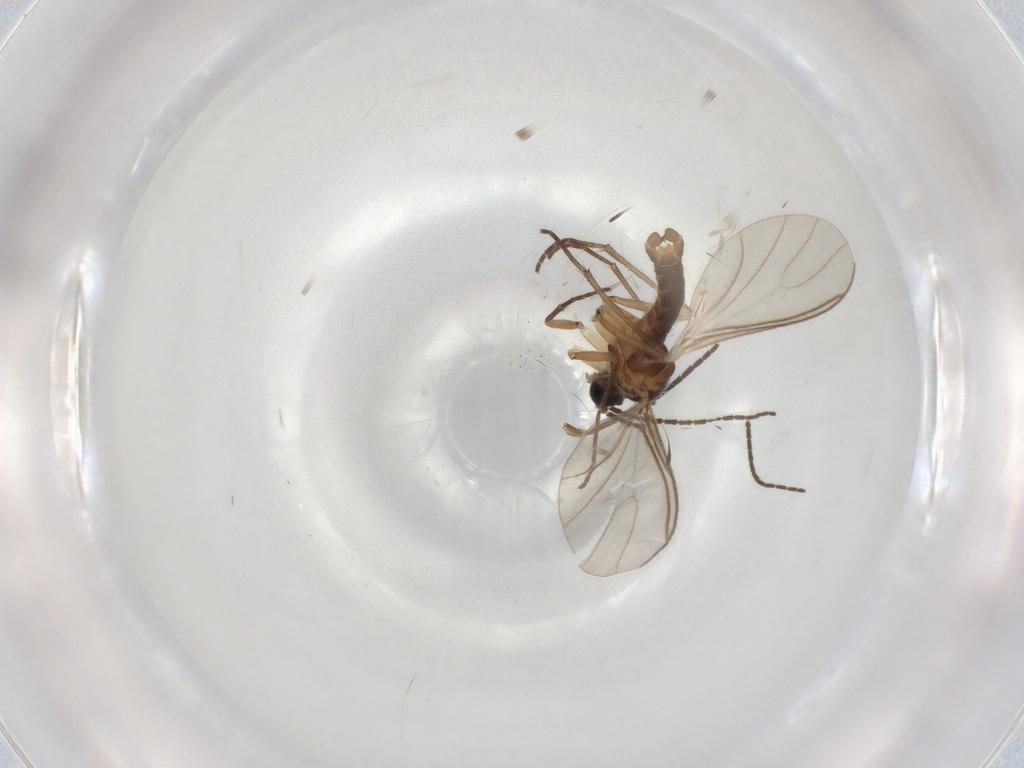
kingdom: Animalia
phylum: Arthropoda
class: Insecta
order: Diptera
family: Sciaridae
